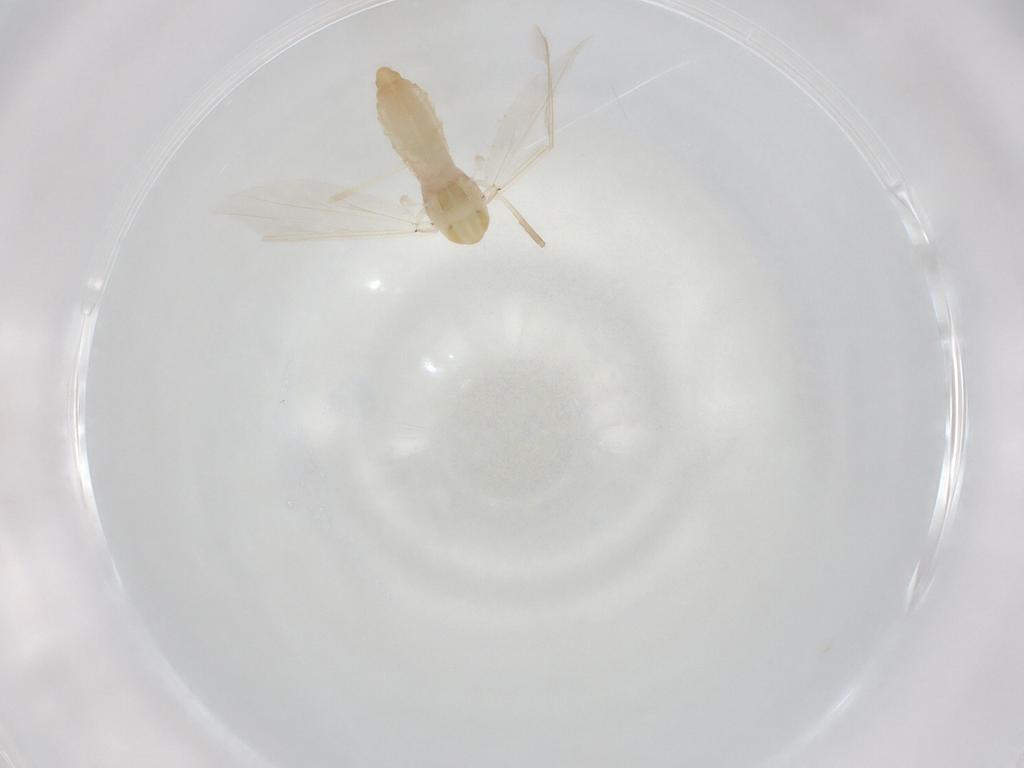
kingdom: Animalia
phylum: Arthropoda
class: Insecta
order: Diptera
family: Chironomidae
